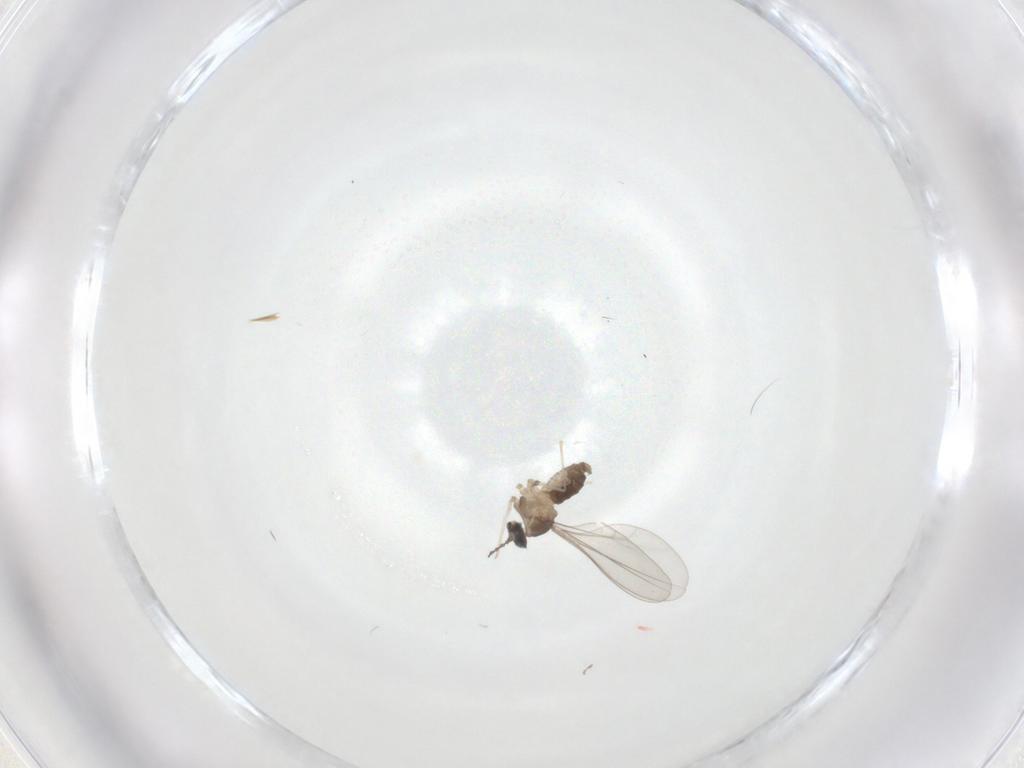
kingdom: Animalia
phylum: Arthropoda
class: Insecta
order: Diptera
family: Cecidomyiidae
